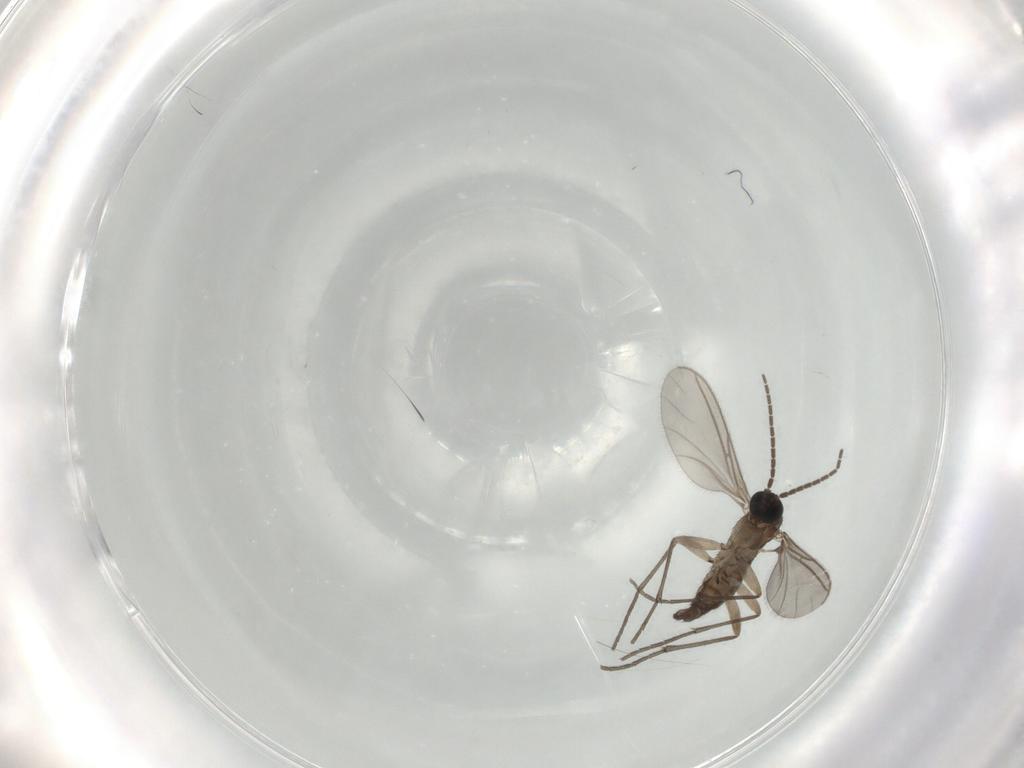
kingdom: Animalia
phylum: Arthropoda
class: Insecta
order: Diptera
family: Sciaridae
